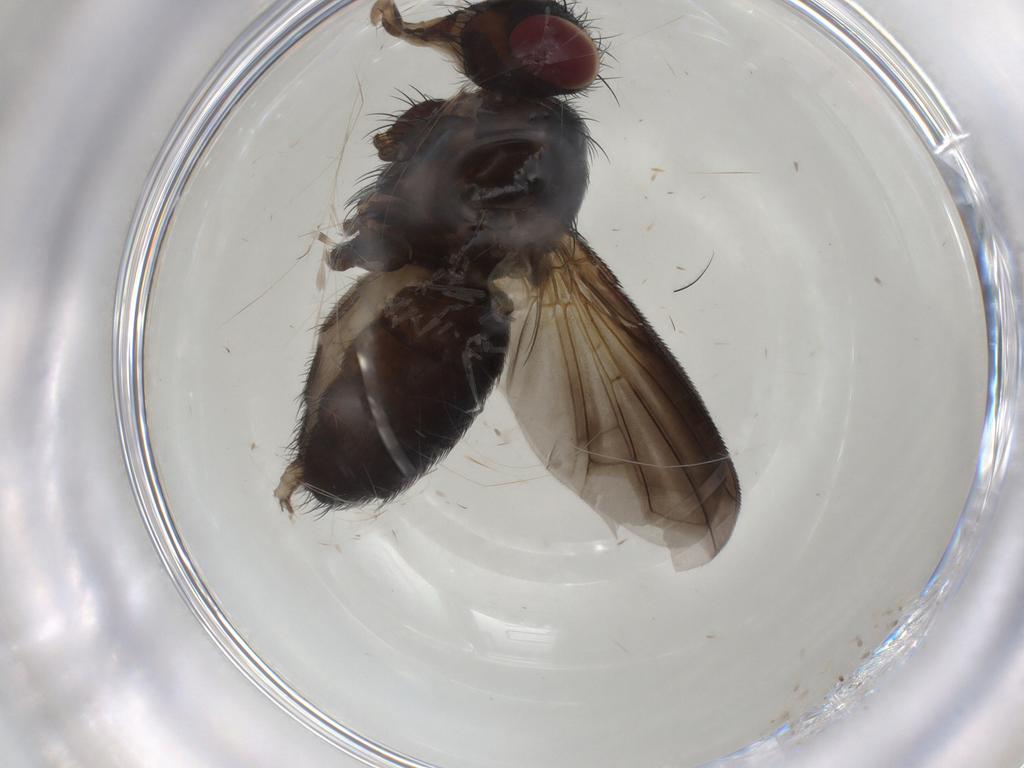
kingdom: Animalia
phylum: Arthropoda
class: Insecta
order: Diptera
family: Tachinidae
